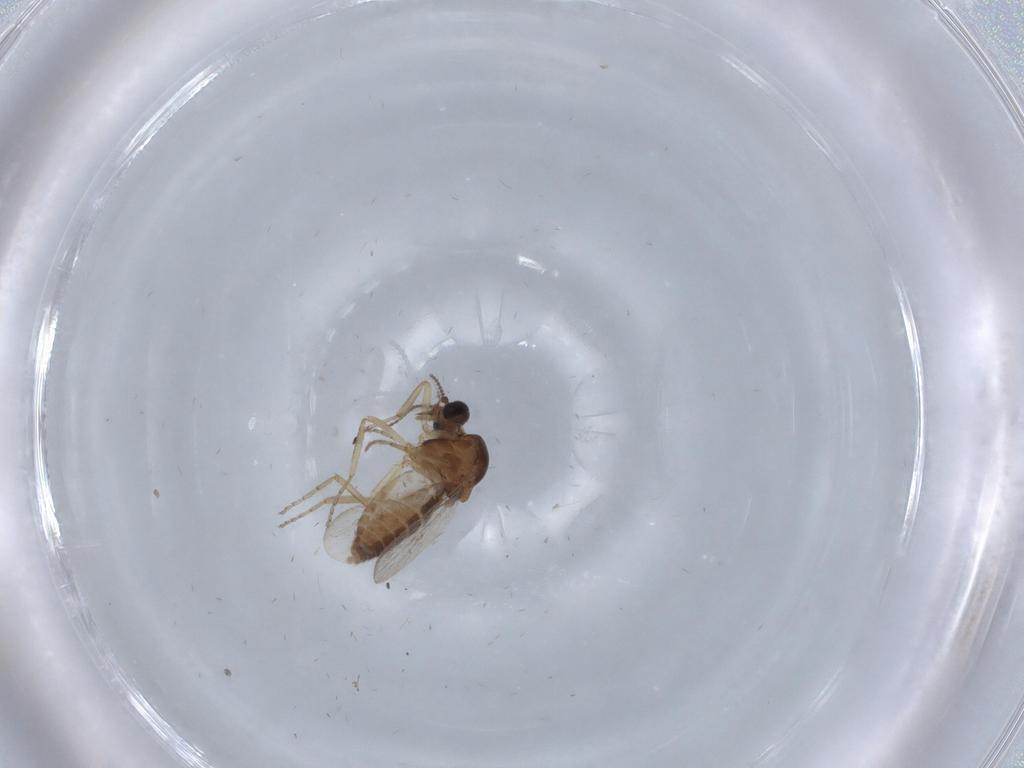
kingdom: Animalia
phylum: Arthropoda
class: Insecta
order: Diptera
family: Ceratopogonidae
